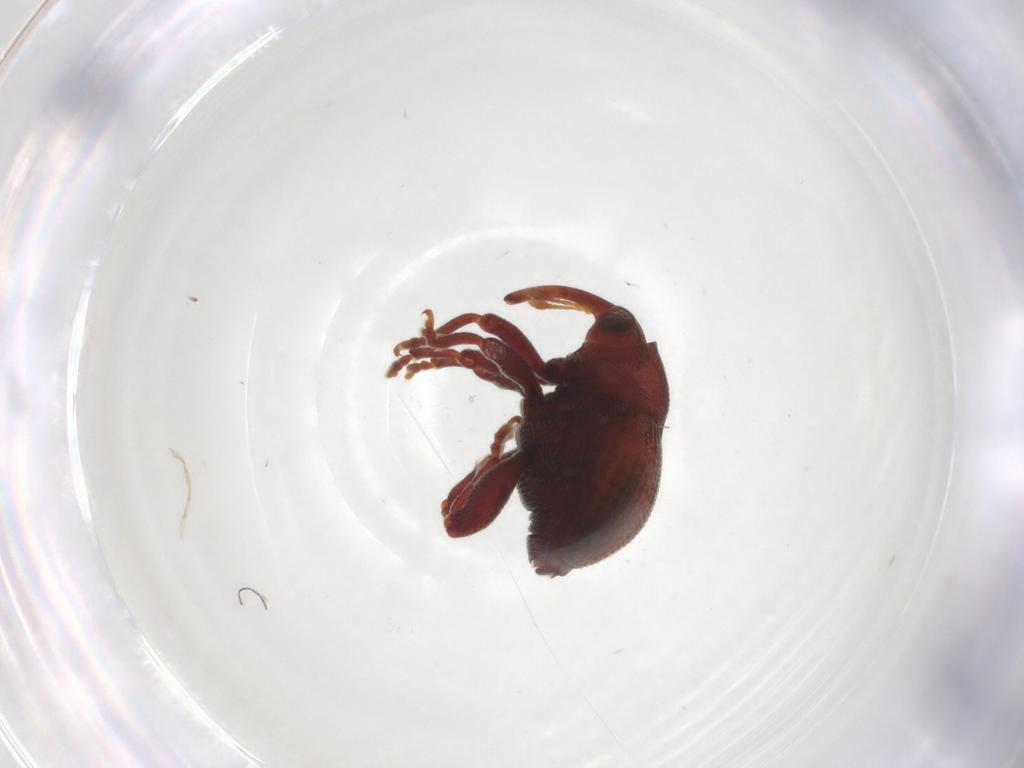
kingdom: Animalia
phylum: Arthropoda
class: Insecta
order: Coleoptera
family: Curculionidae
